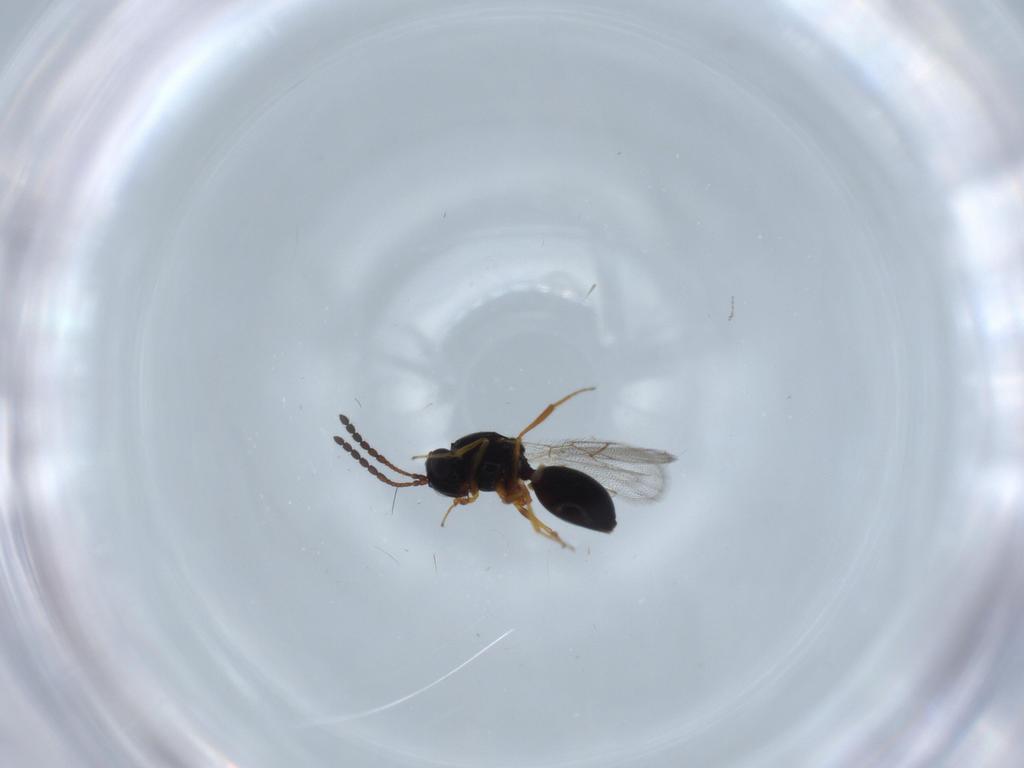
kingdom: Animalia
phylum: Arthropoda
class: Insecta
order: Hymenoptera
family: Figitidae
